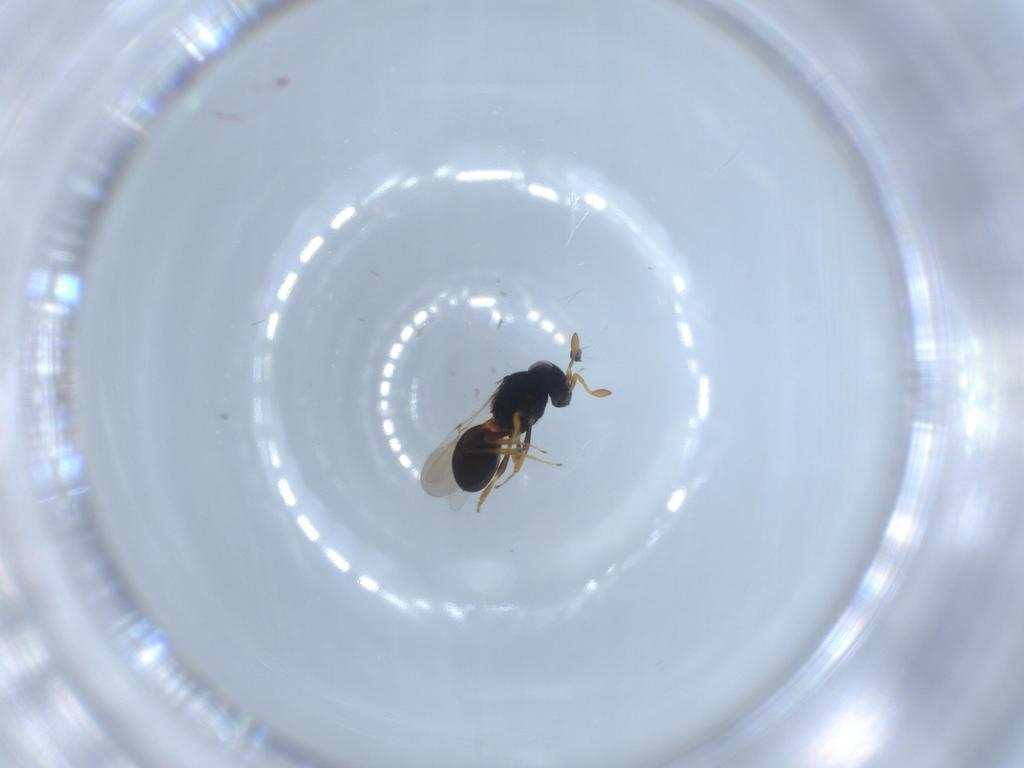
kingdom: Animalia
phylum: Arthropoda
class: Insecta
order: Hymenoptera
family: Scelionidae
